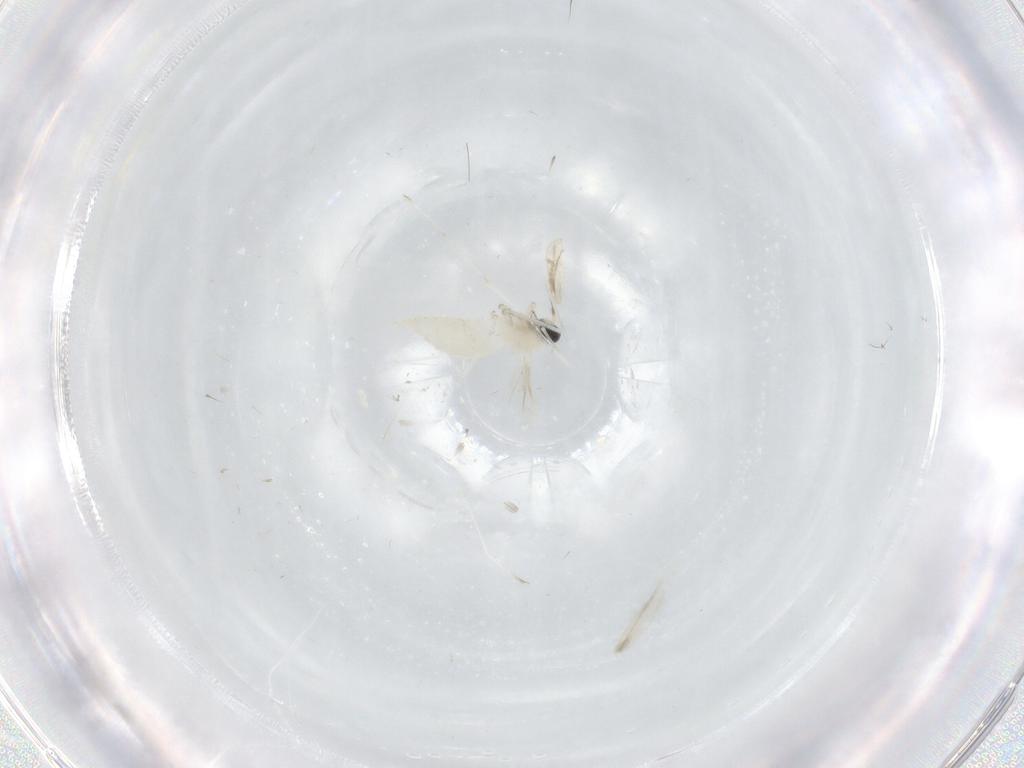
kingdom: Animalia
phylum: Arthropoda
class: Insecta
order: Diptera
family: Cecidomyiidae
